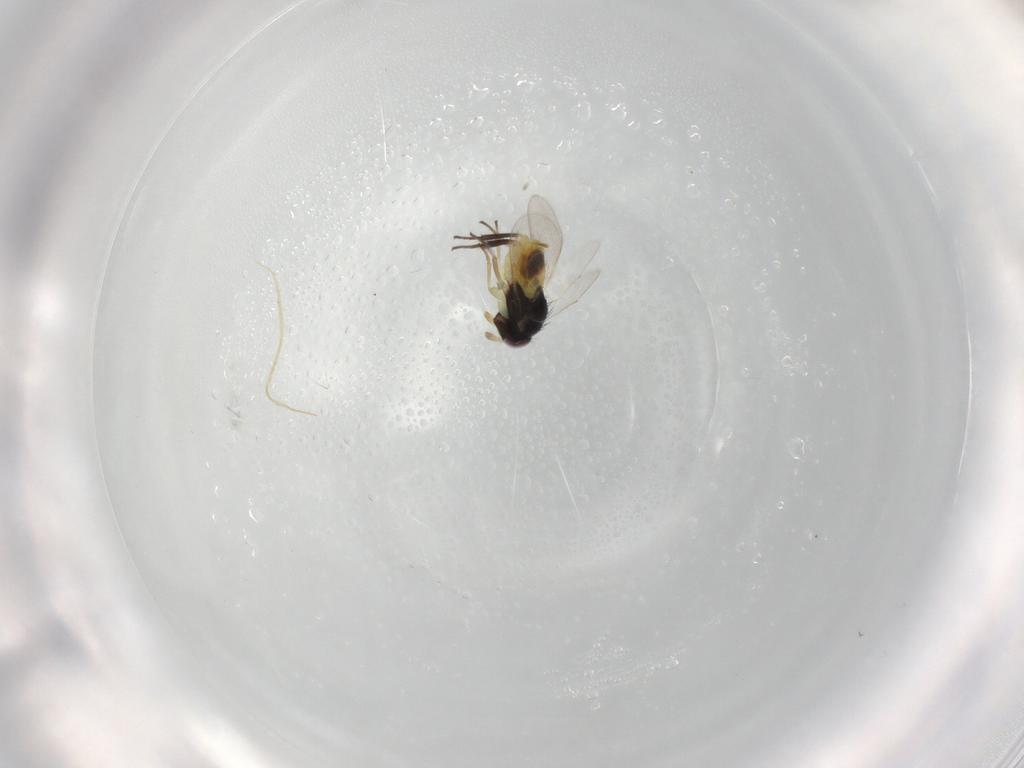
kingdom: Animalia
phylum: Arthropoda
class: Insecta
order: Hymenoptera
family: Aphelinidae
